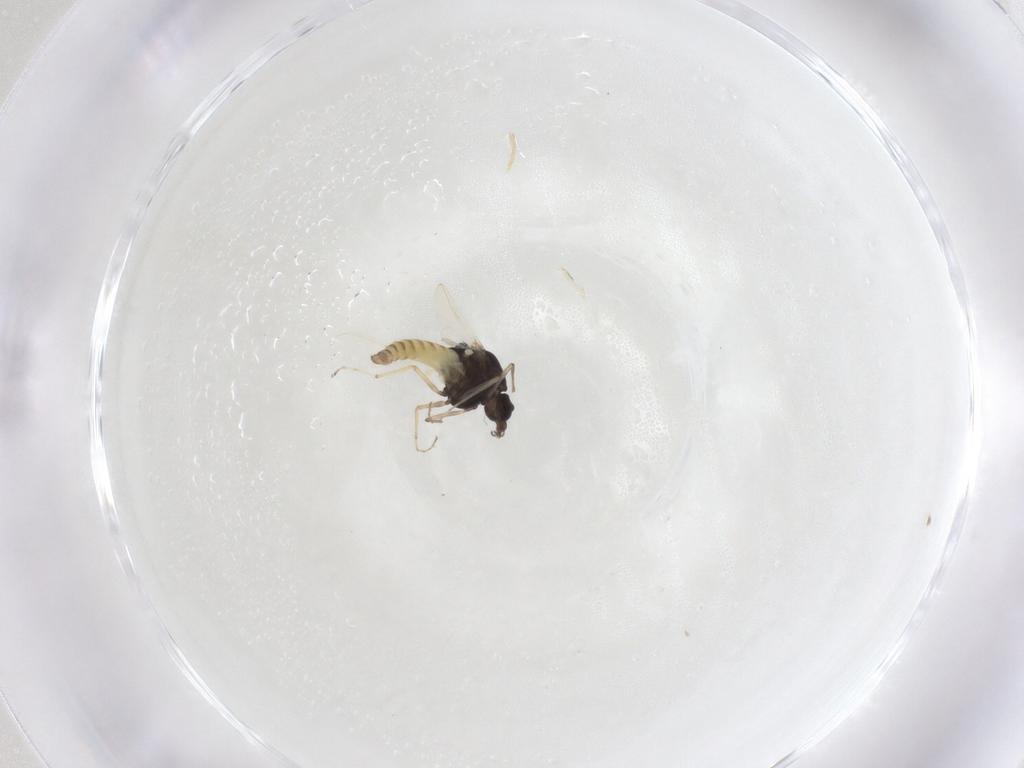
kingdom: Animalia
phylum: Arthropoda
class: Insecta
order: Diptera
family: Chironomidae
